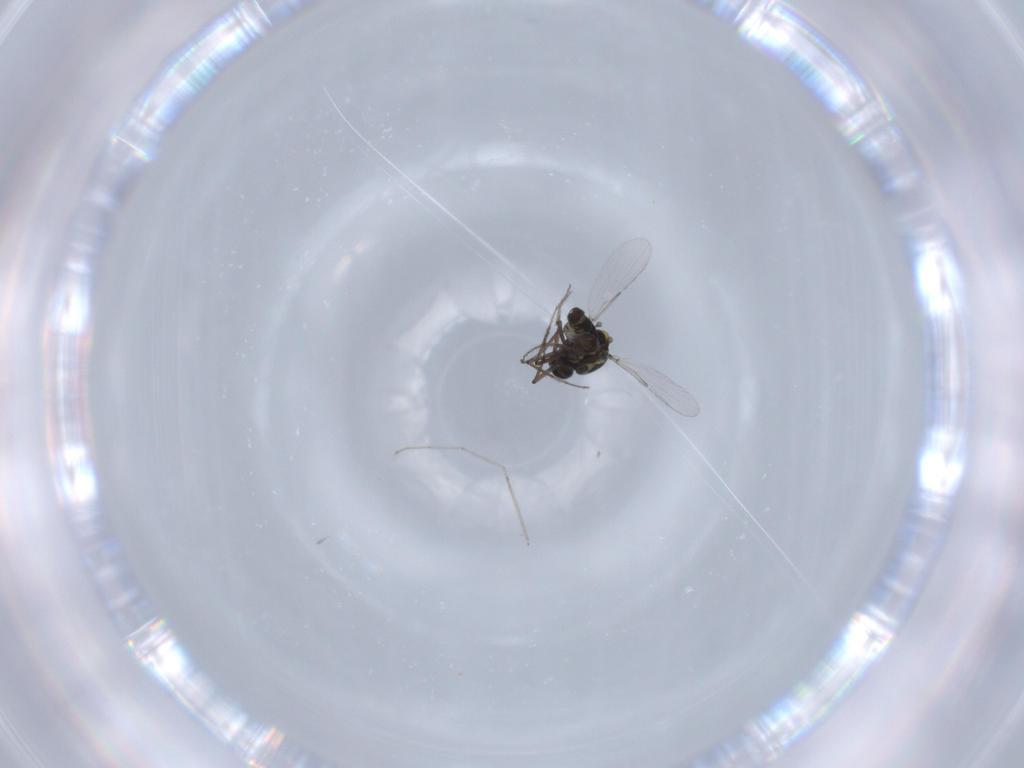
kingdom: Animalia
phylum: Arthropoda
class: Insecta
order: Diptera
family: Ceratopogonidae
